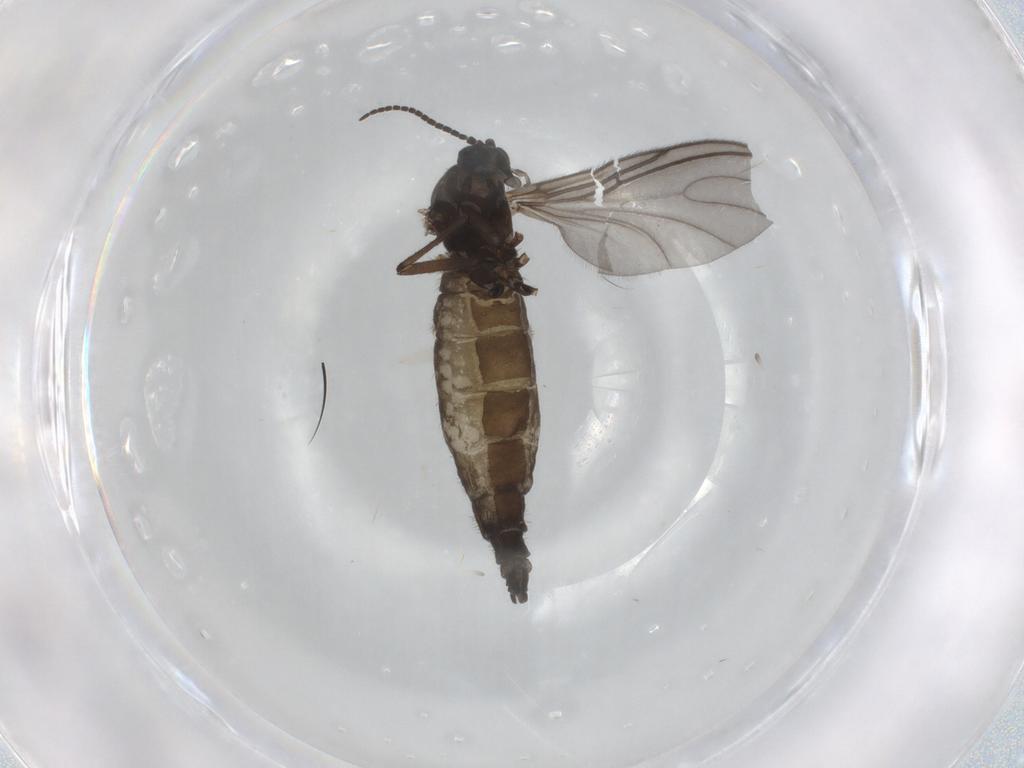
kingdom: Animalia
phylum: Arthropoda
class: Insecta
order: Diptera
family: Sciaridae
